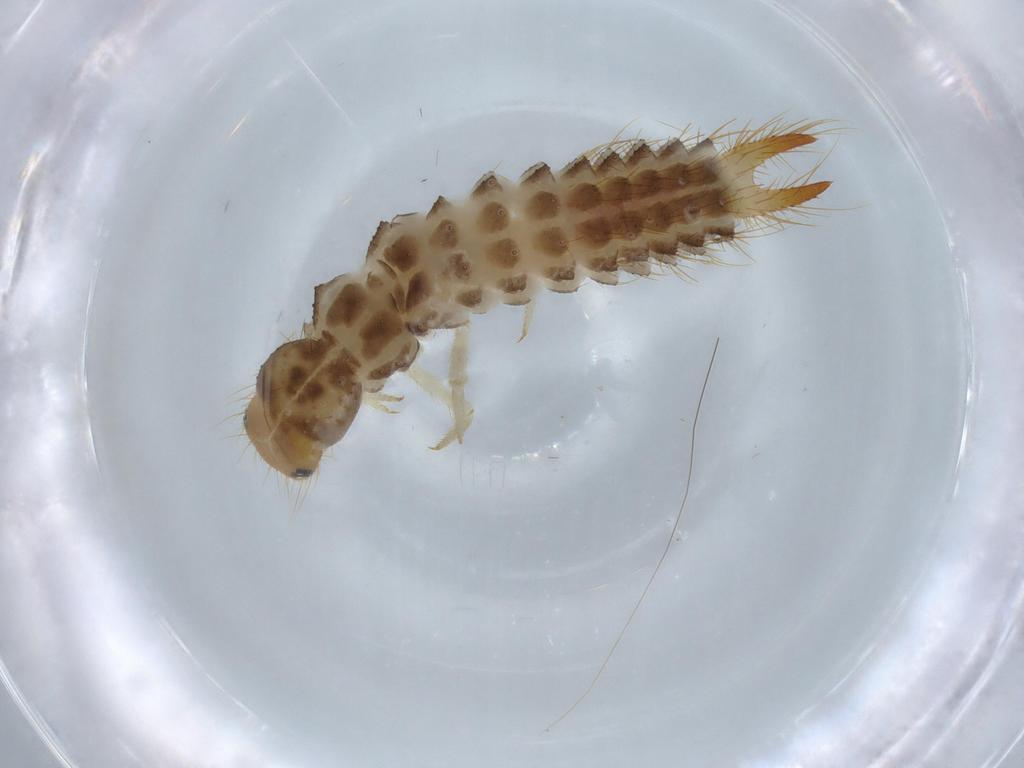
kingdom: Animalia
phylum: Arthropoda
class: Insecta
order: Coleoptera
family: Melyridae
